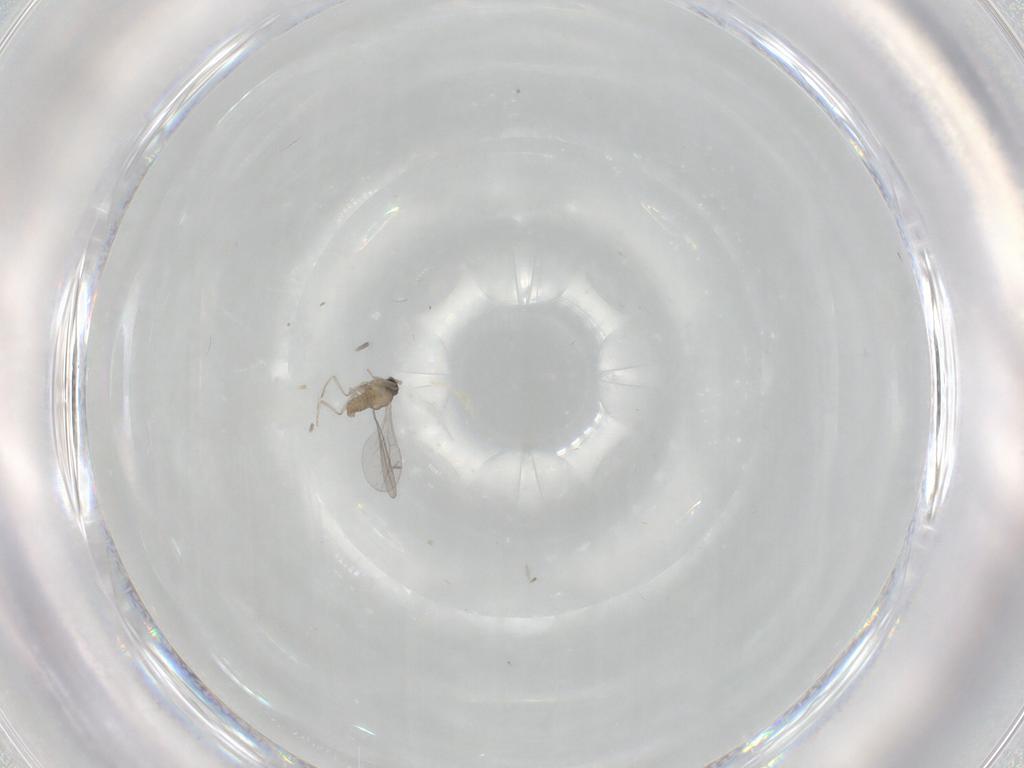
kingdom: Animalia
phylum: Arthropoda
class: Insecta
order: Diptera
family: Cecidomyiidae
